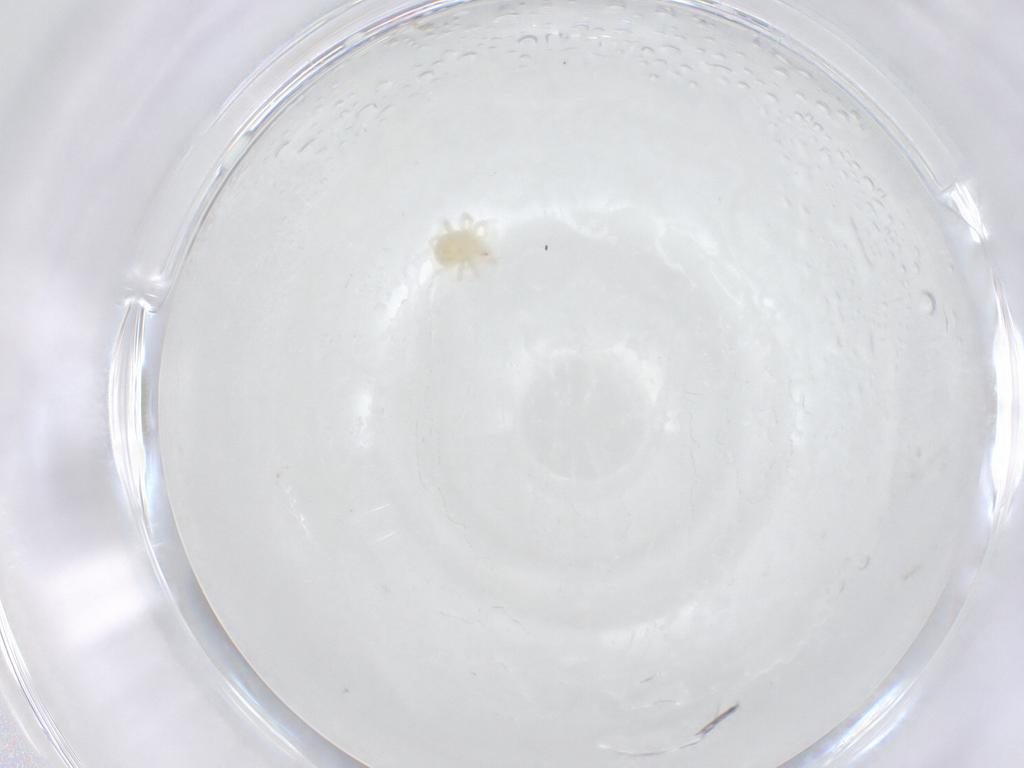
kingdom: Animalia
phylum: Arthropoda
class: Arachnida
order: Trombidiformes
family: Anystidae
